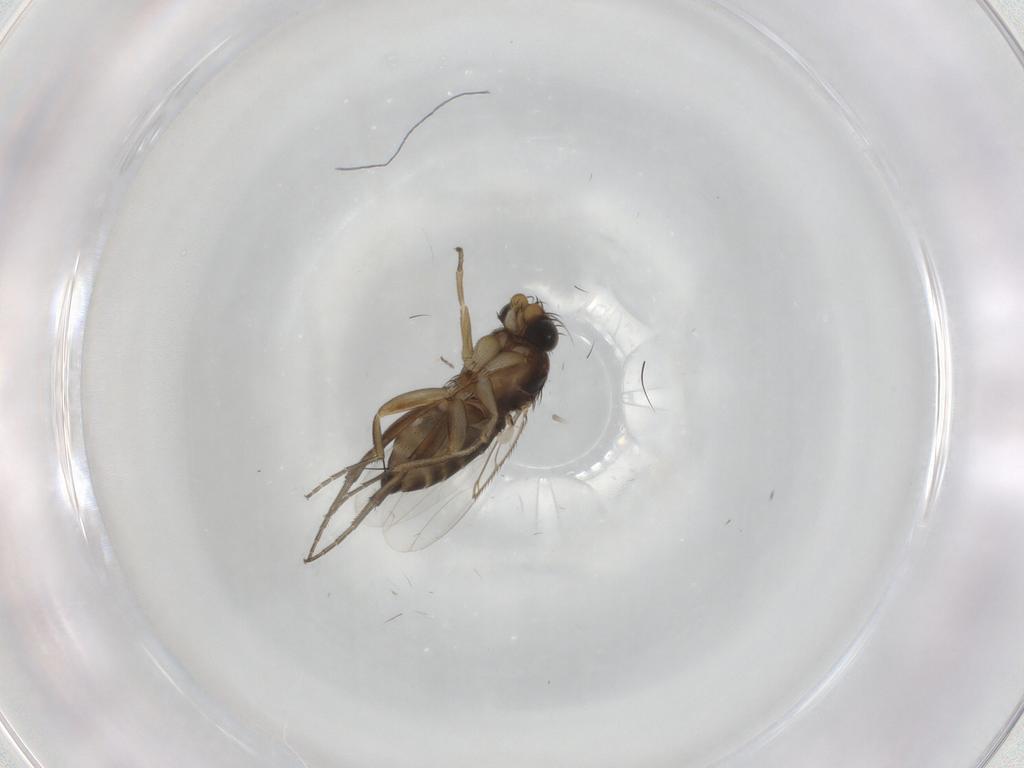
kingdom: Animalia
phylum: Arthropoda
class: Insecta
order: Diptera
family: Phoridae
